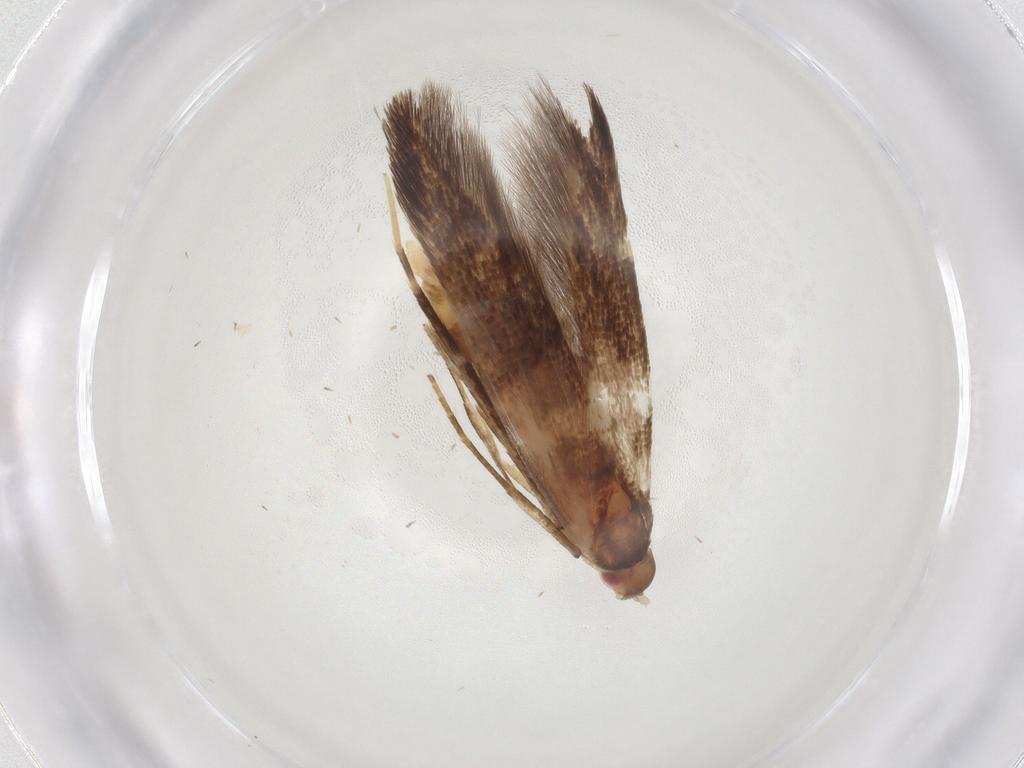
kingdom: Animalia
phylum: Arthropoda
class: Insecta
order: Lepidoptera
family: Cosmopterigidae
